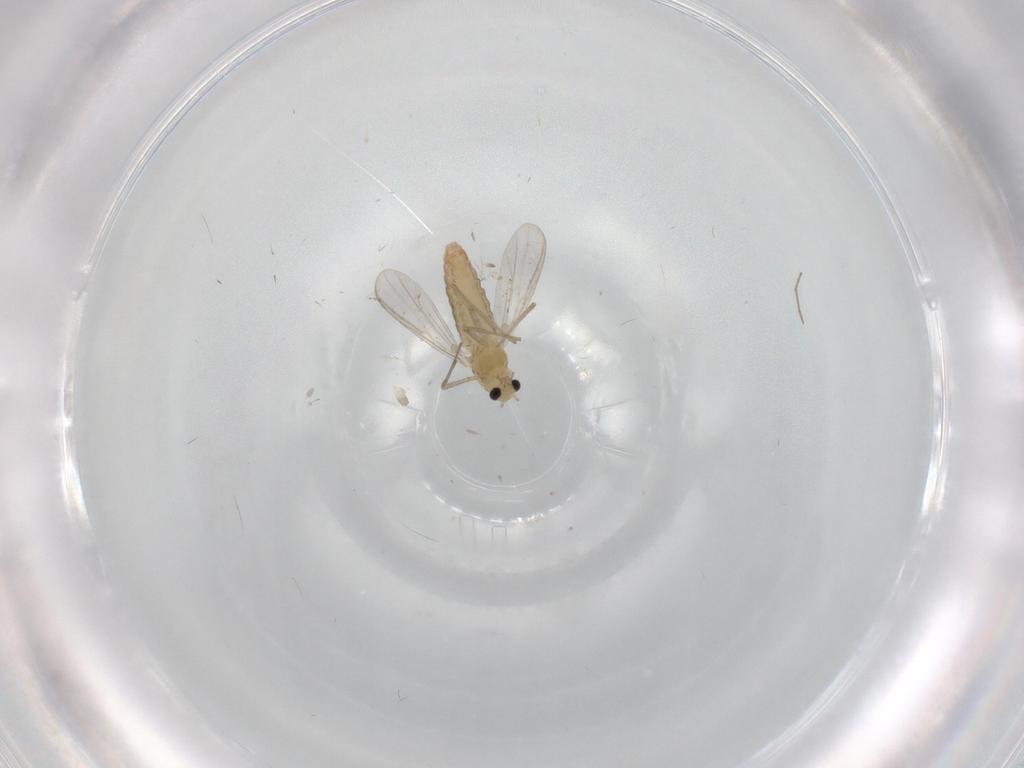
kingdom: Animalia
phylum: Arthropoda
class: Insecta
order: Diptera
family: Chironomidae
